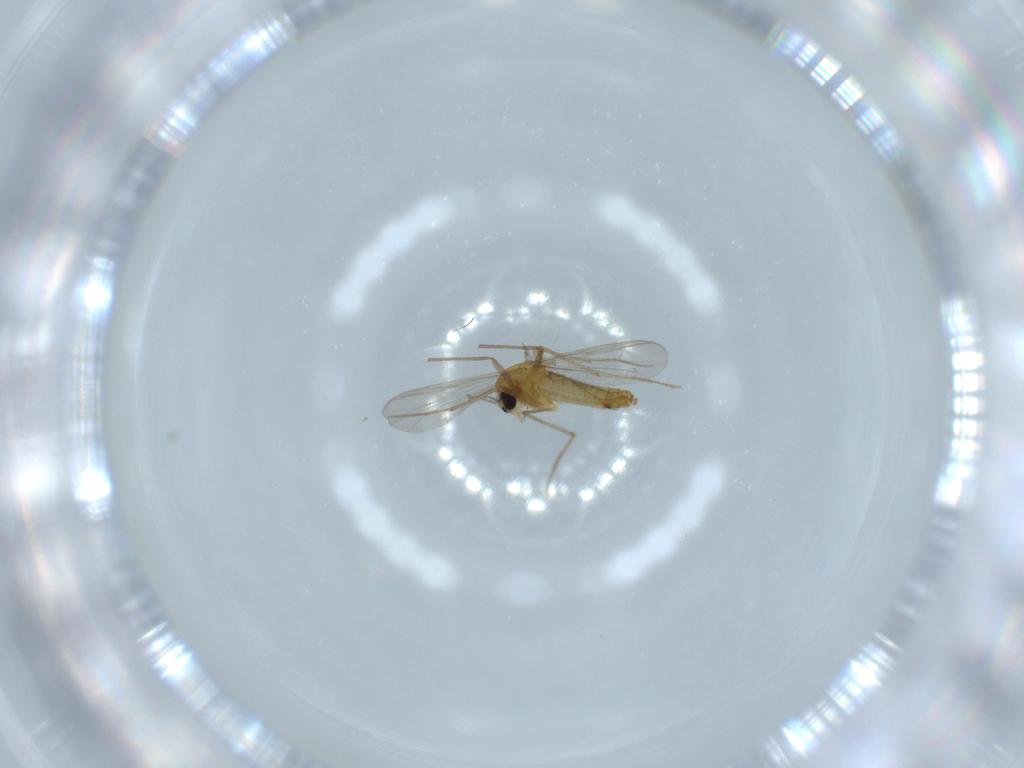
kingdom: Animalia
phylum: Arthropoda
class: Insecta
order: Diptera
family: Chironomidae
